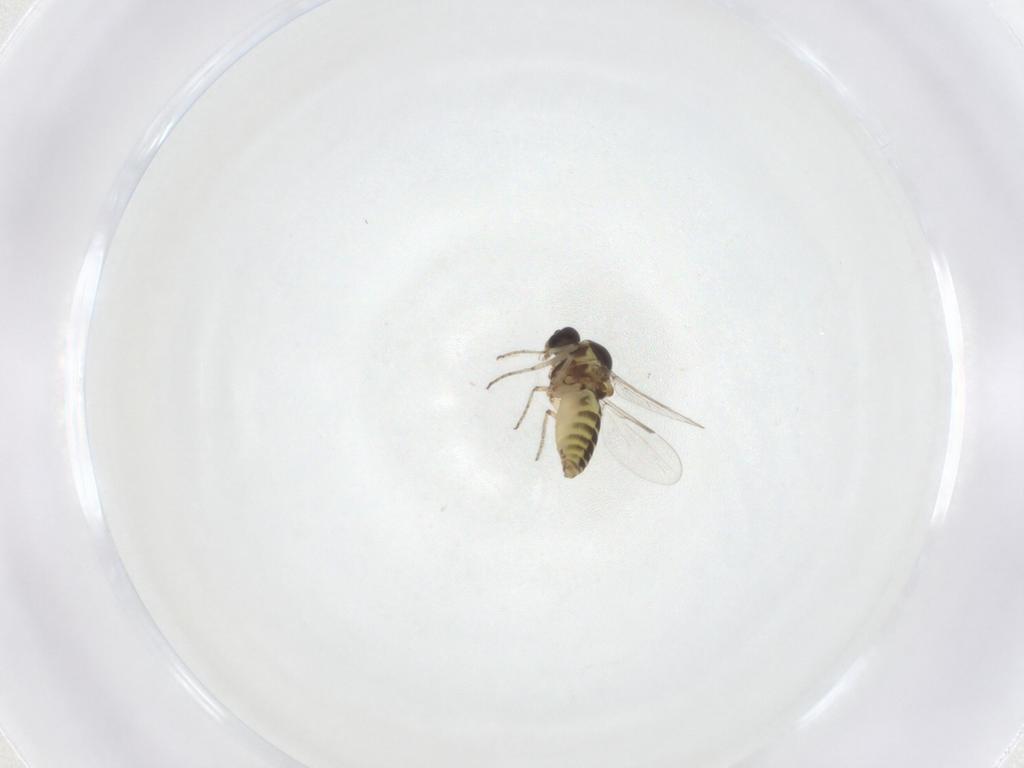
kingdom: Animalia
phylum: Arthropoda
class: Insecta
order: Diptera
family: Ceratopogonidae
